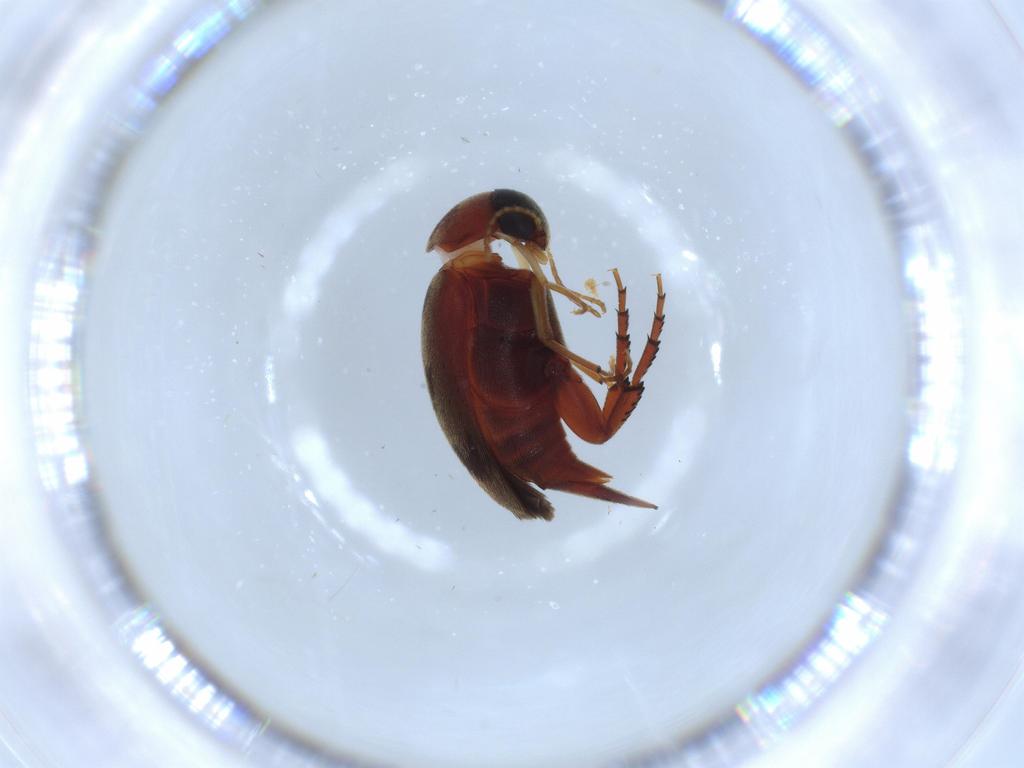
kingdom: Animalia
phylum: Arthropoda
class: Insecta
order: Coleoptera
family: Mordellidae
